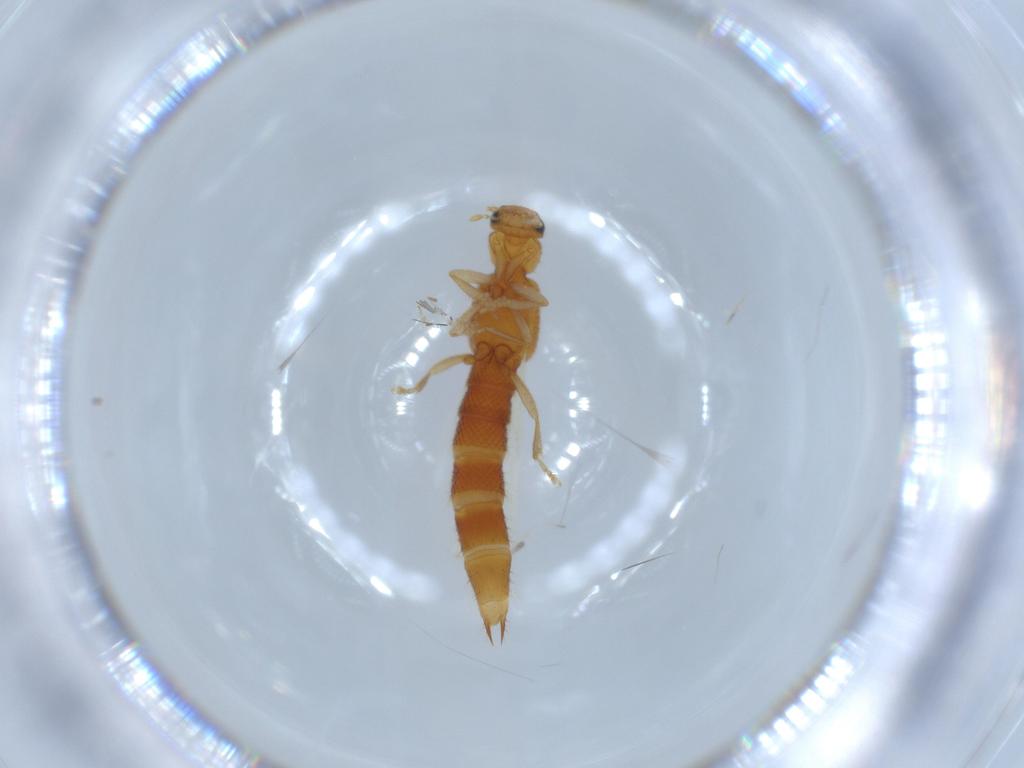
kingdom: Animalia
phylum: Arthropoda
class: Insecta
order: Coleoptera
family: Staphylinidae
